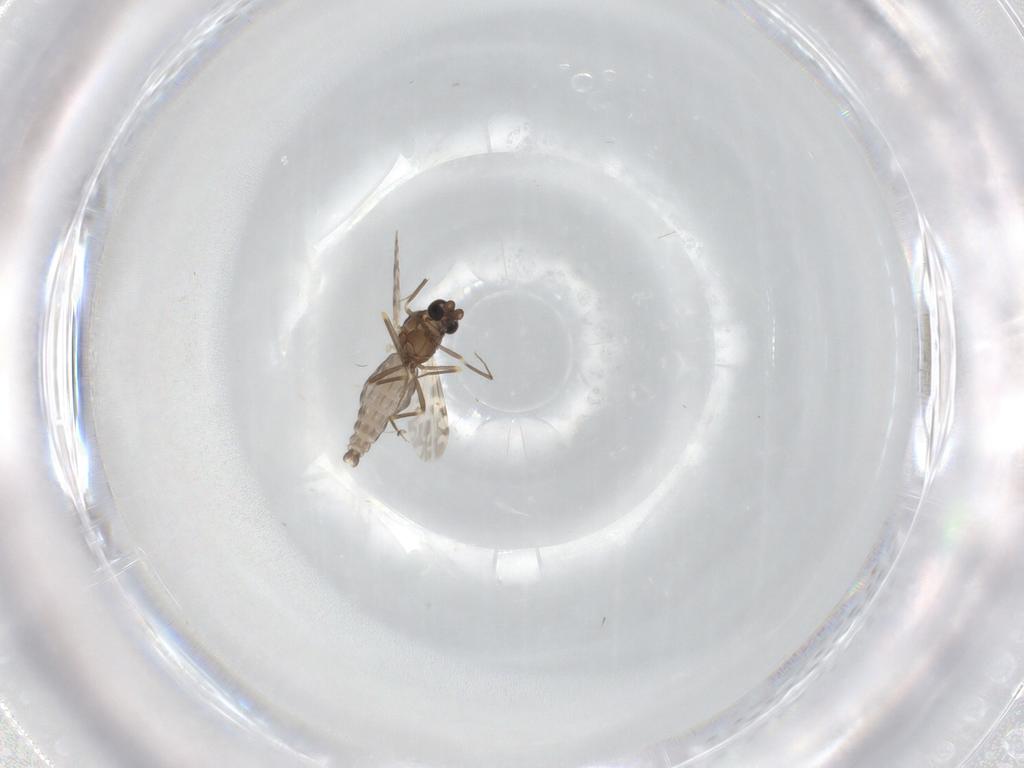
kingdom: Animalia
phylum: Arthropoda
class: Insecta
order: Diptera
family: Ceratopogonidae
